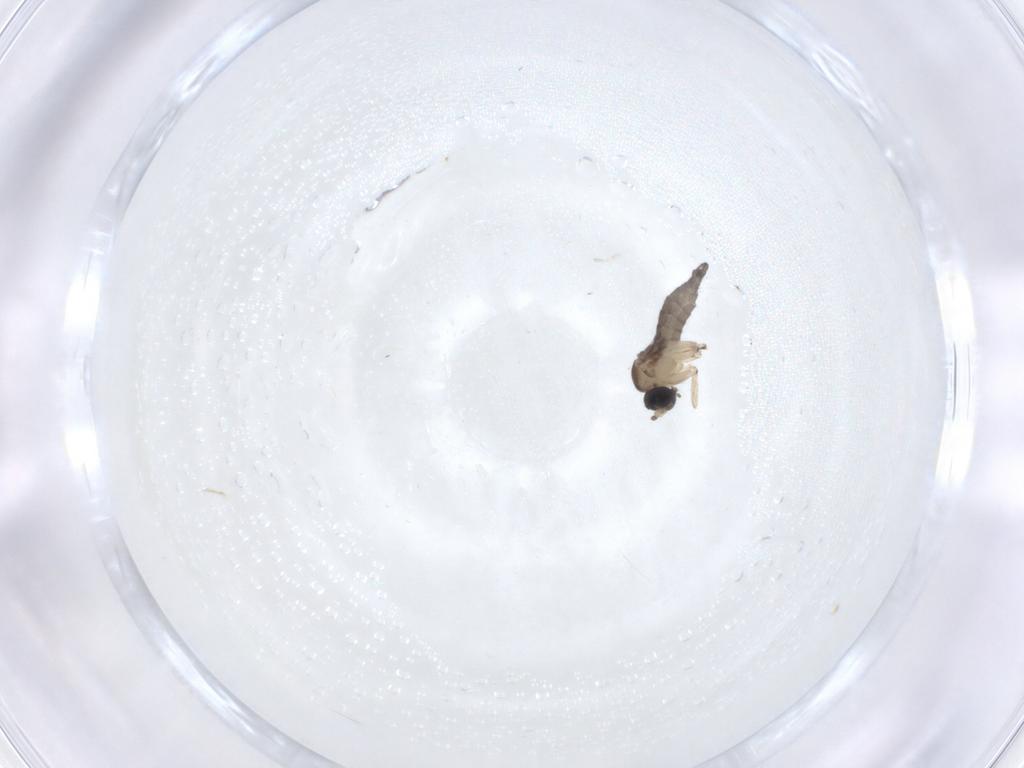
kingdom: Animalia
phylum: Arthropoda
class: Insecta
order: Diptera
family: Sciaridae
